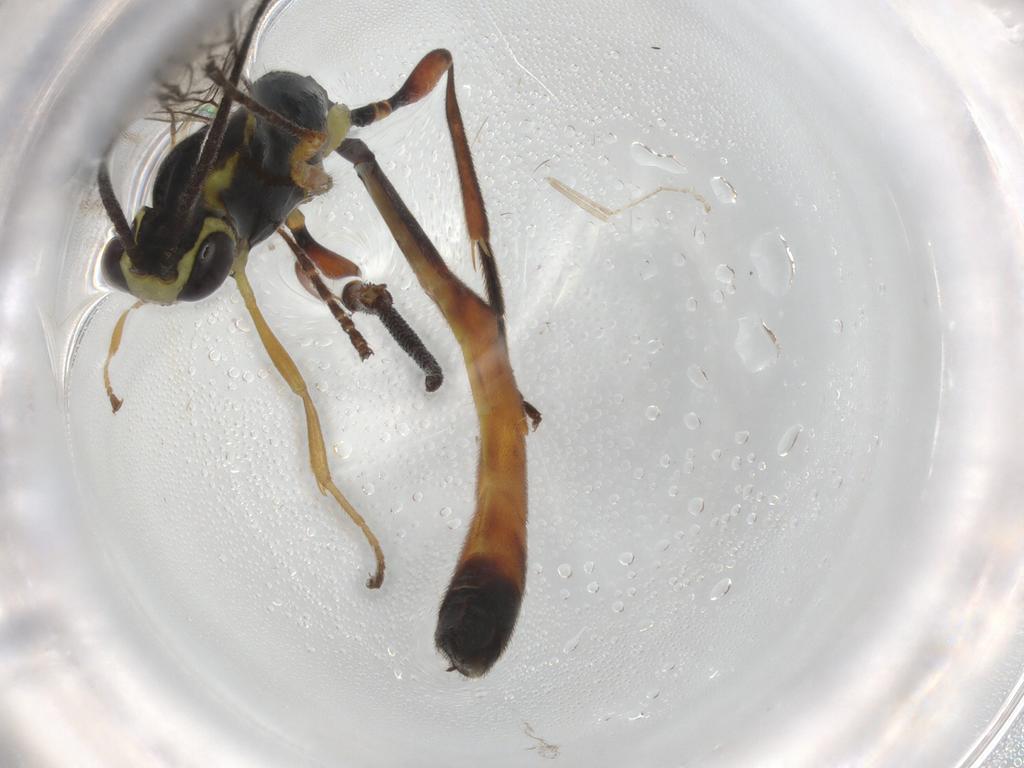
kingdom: Animalia
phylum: Arthropoda
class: Insecta
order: Hymenoptera
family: Ichneumonidae
